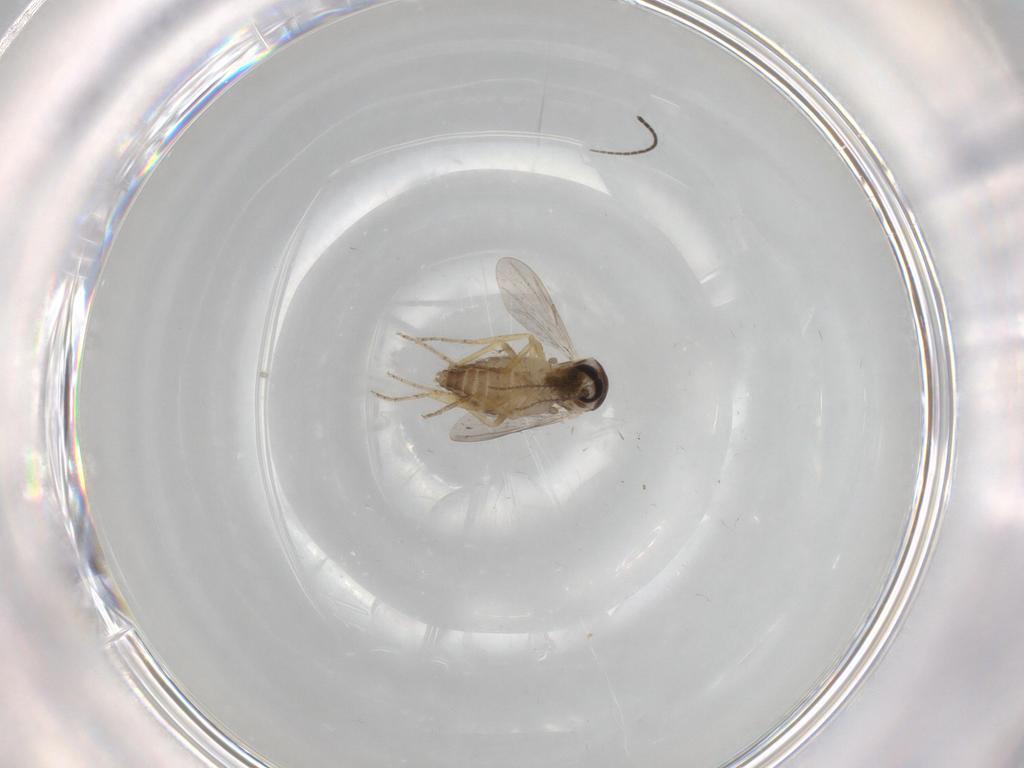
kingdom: Animalia
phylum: Arthropoda
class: Insecta
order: Diptera
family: Ceratopogonidae
